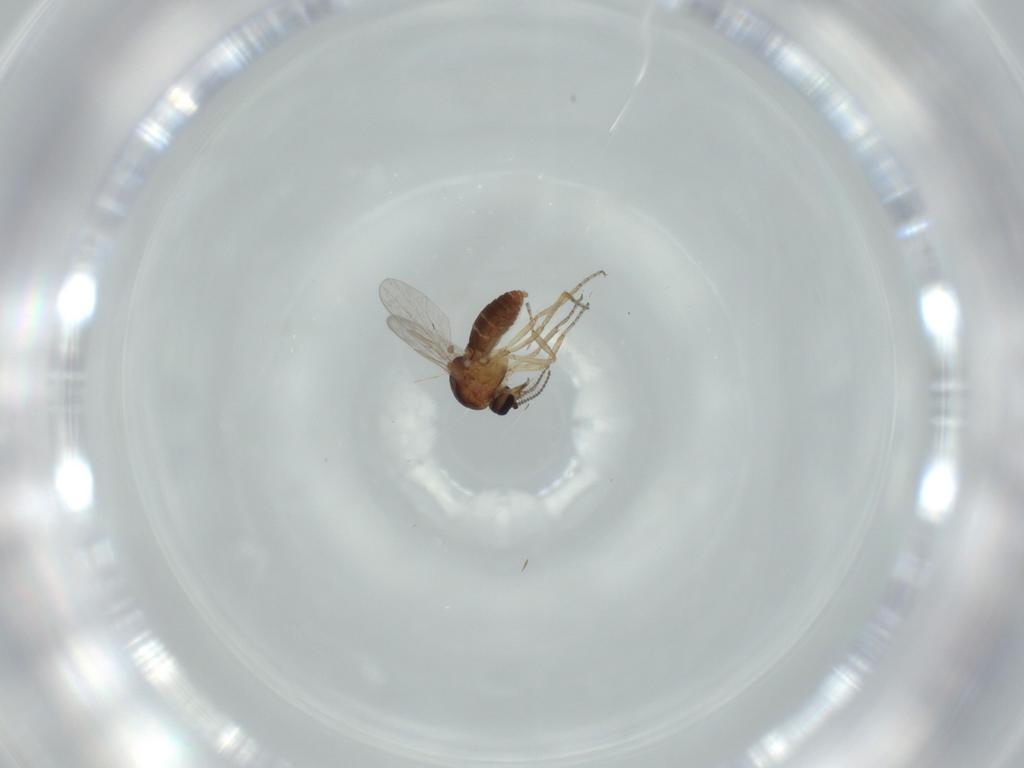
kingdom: Animalia
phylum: Arthropoda
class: Insecta
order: Diptera
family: Ceratopogonidae
